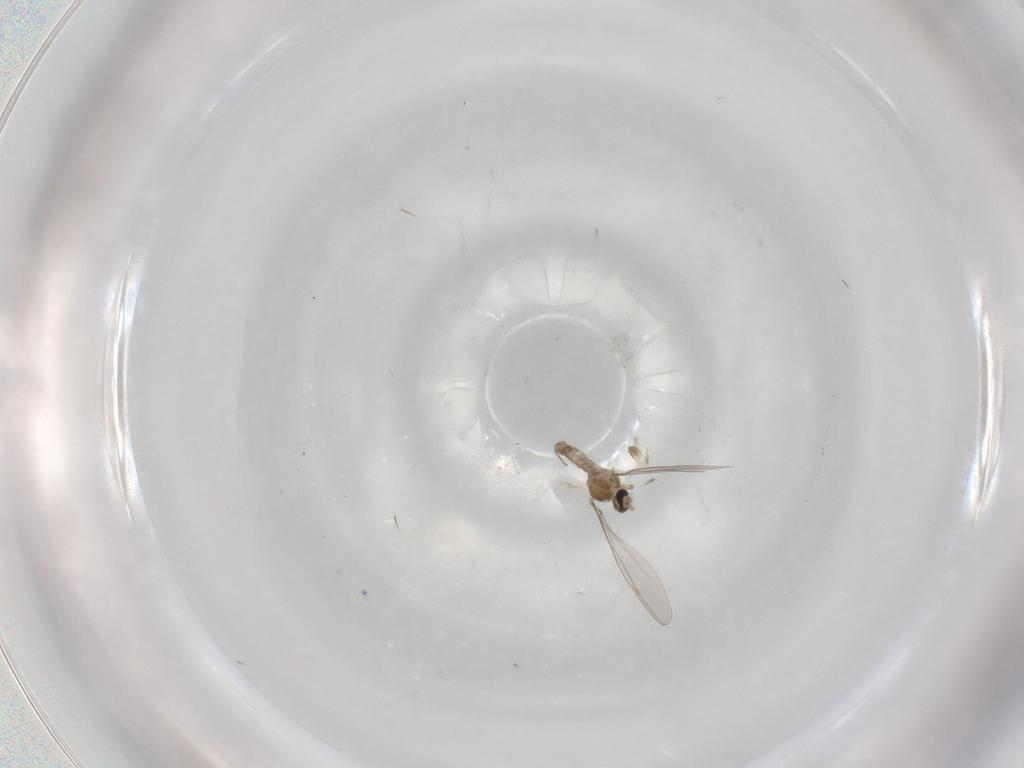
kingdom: Animalia
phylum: Arthropoda
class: Insecta
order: Diptera
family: Cecidomyiidae
